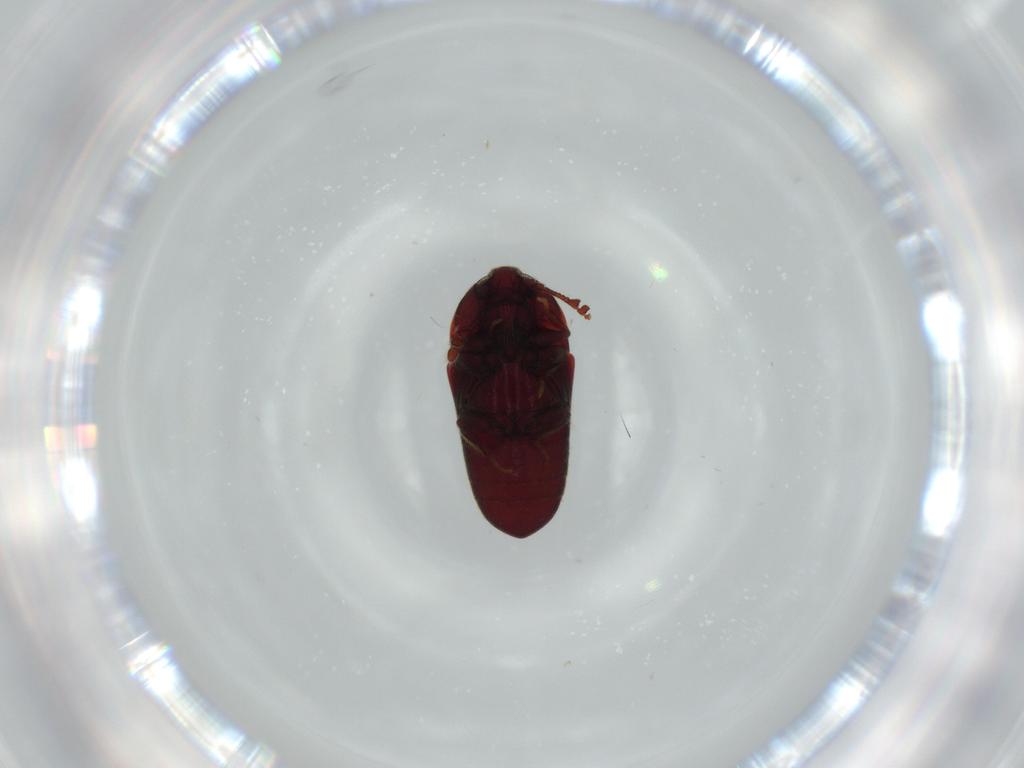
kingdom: Animalia
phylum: Arthropoda
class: Insecta
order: Coleoptera
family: Throscidae
